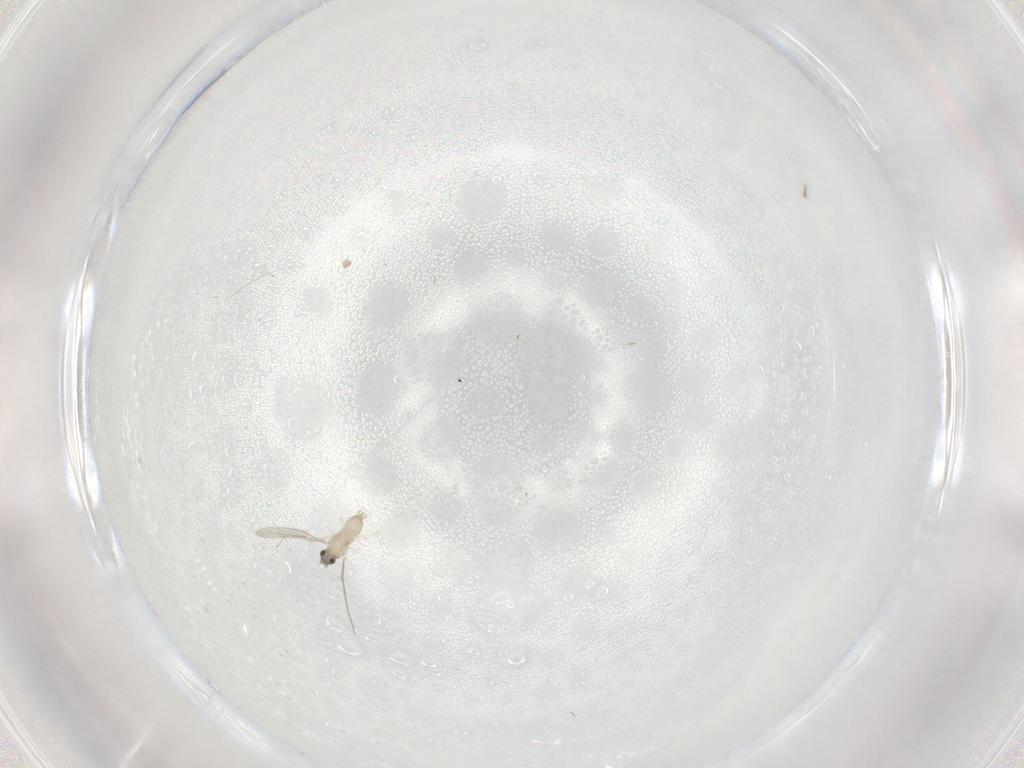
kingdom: Animalia
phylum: Arthropoda
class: Insecta
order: Diptera
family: Cecidomyiidae
